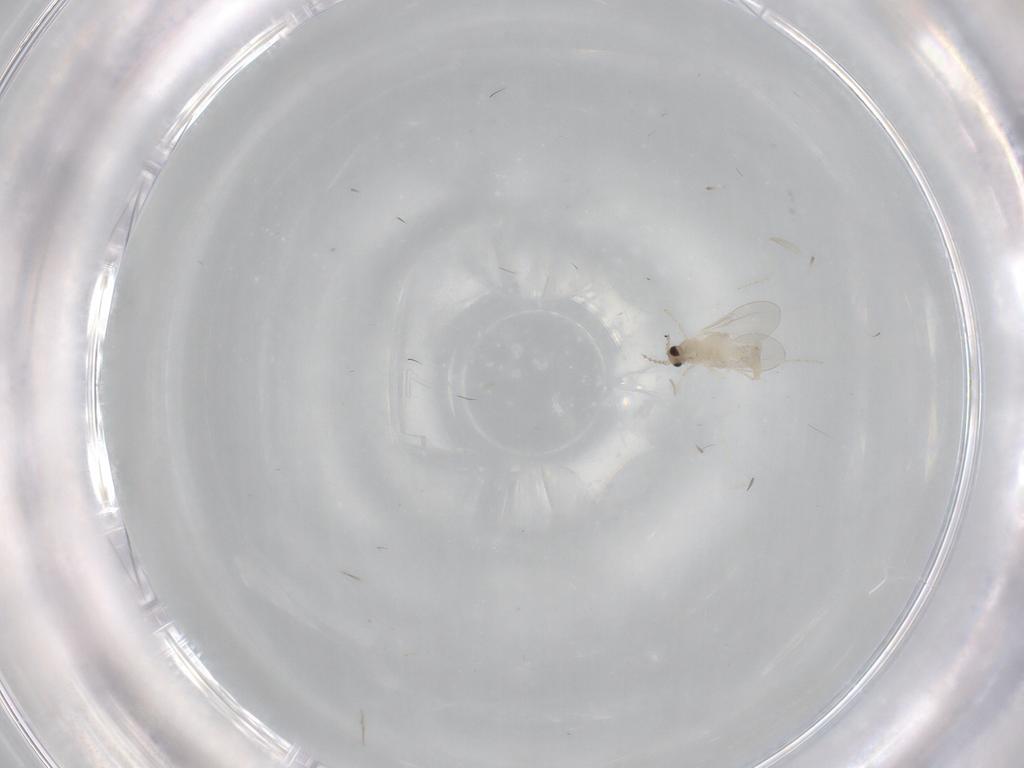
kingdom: Animalia
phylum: Arthropoda
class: Insecta
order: Diptera
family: Cecidomyiidae
